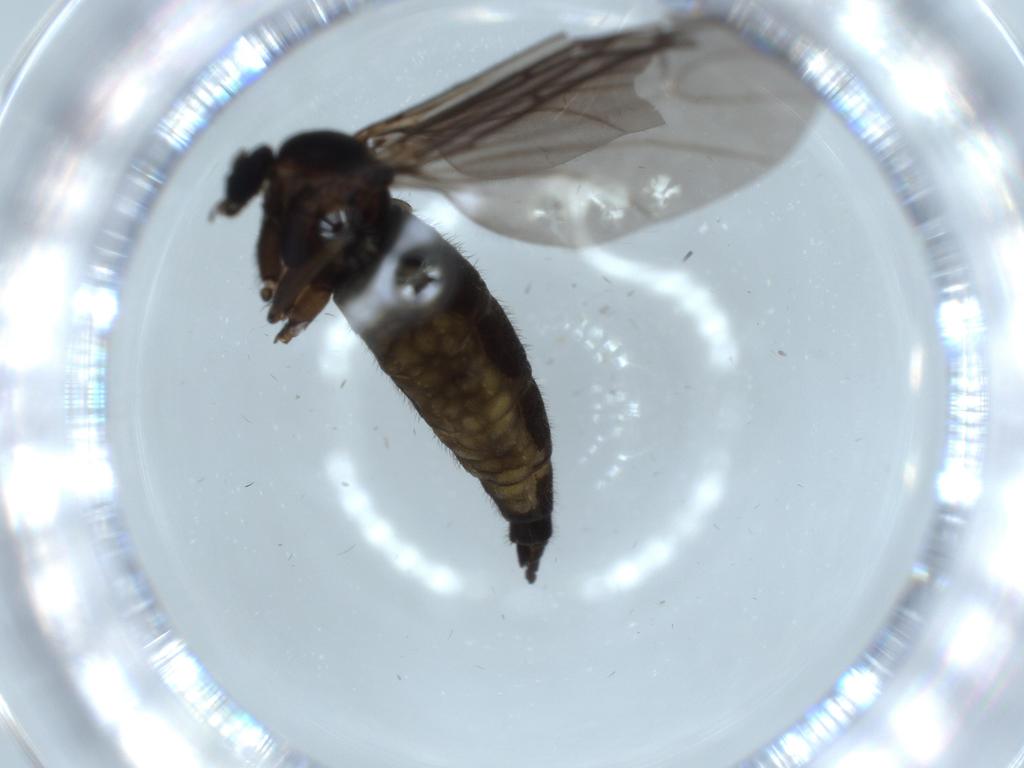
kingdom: Animalia
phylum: Arthropoda
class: Insecta
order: Diptera
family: Sciaridae
